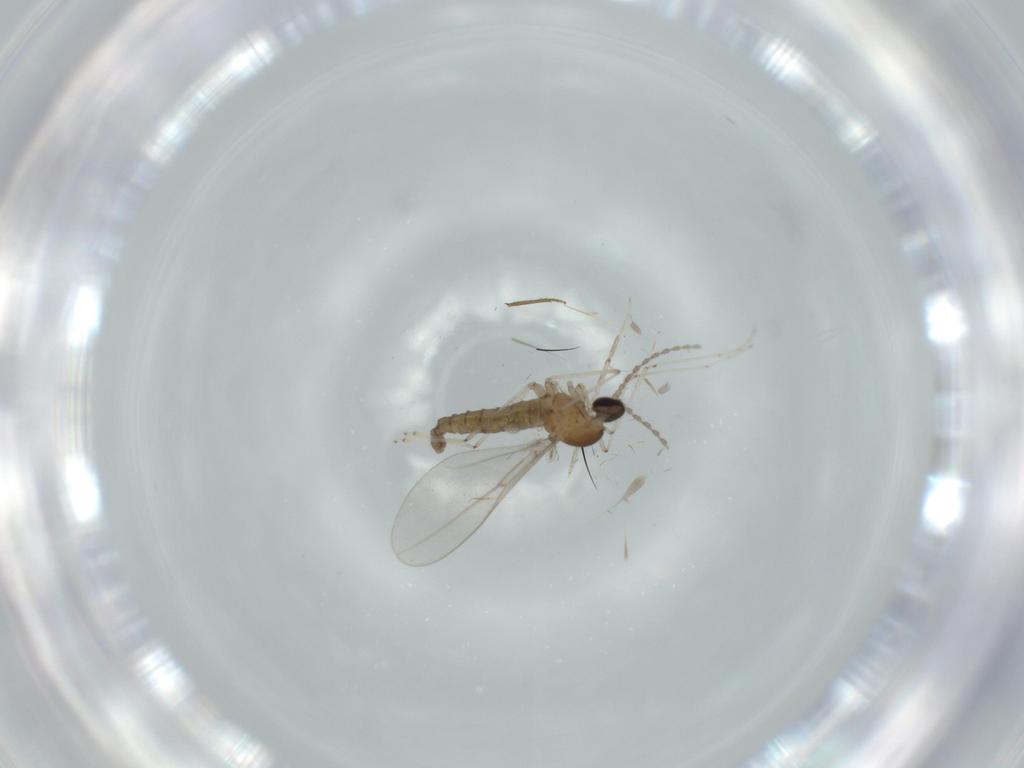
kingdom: Animalia
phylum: Arthropoda
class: Insecta
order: Diptera
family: Cecidomyiidae
